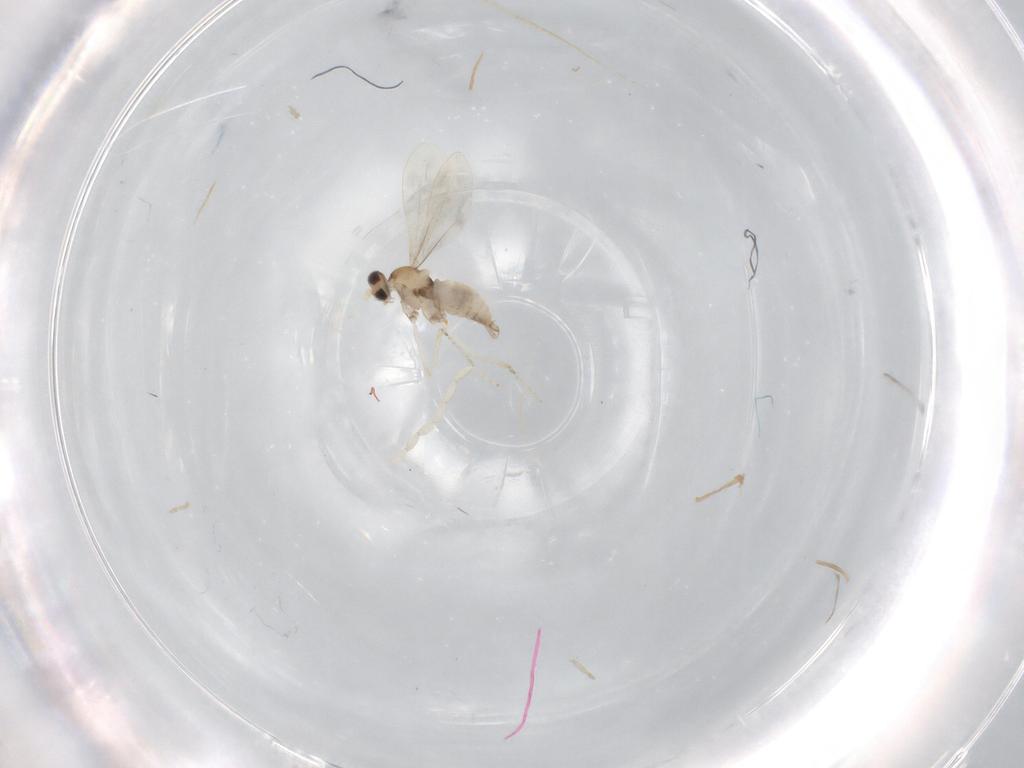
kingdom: Animalia
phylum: Arthropoda
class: Insecta
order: Diptera
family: Cecidomyiidae
